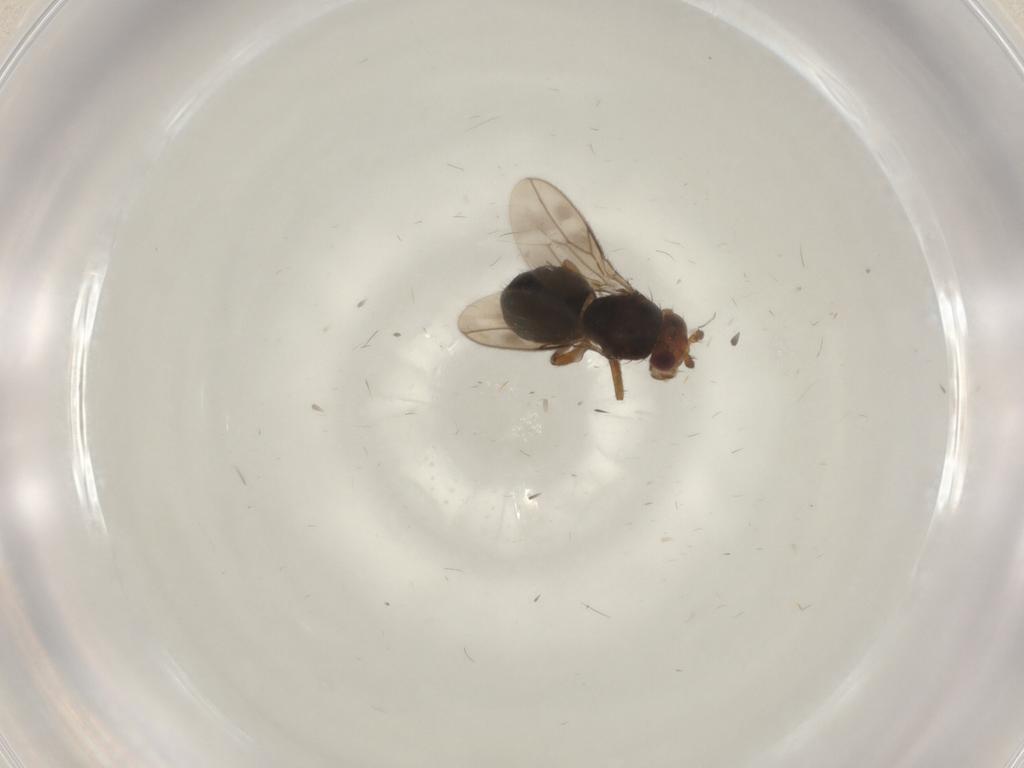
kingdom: Animalia
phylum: Arthropoda
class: Insecta
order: Diptera
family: Sphaeroceridae
